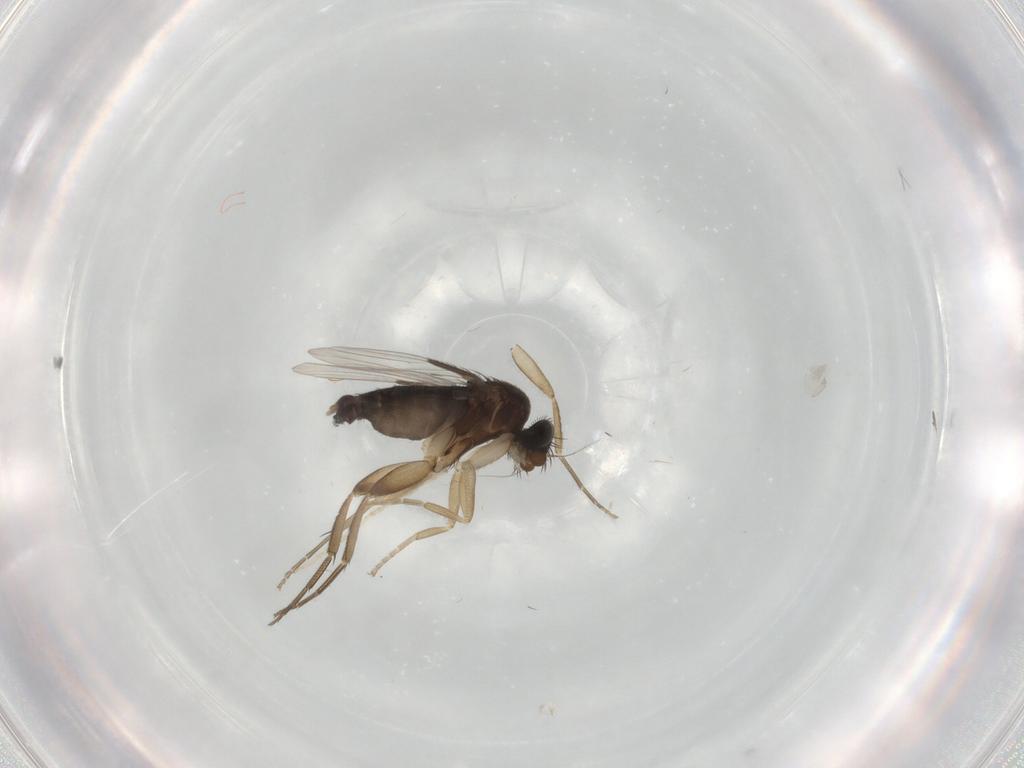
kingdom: Animalia
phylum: Arthropoda
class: Insecta
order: Diptera
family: Phoridae
